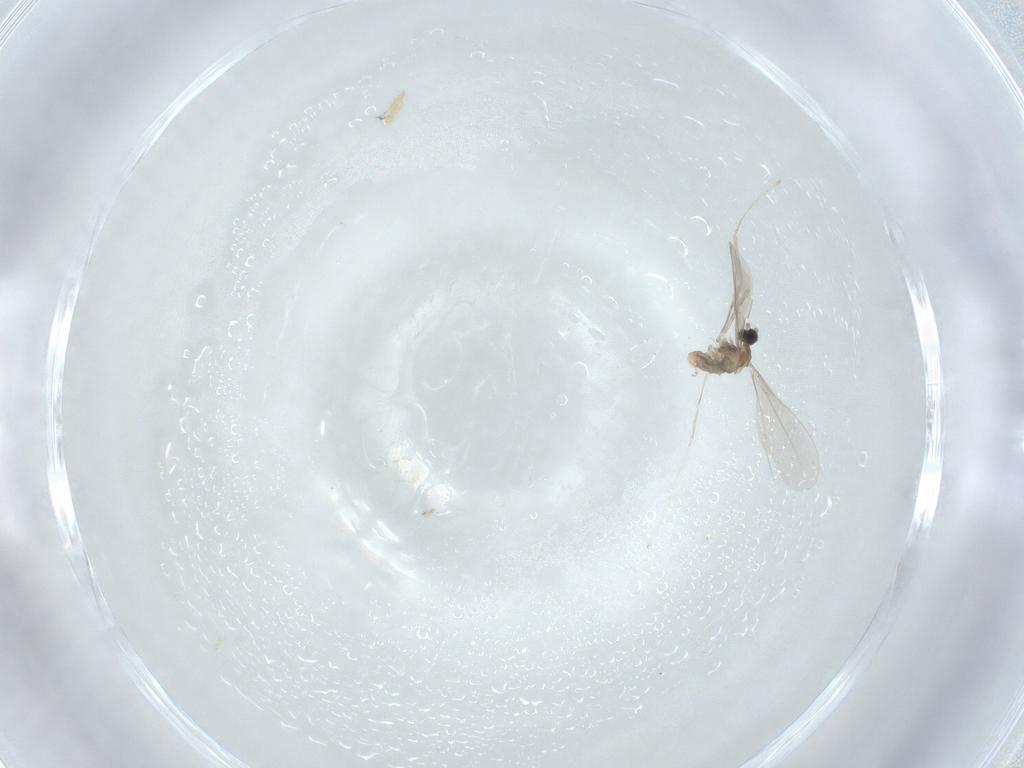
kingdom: Animalia
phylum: Arthropoda
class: Insecta
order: Diptera
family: Cecidomyiidae
